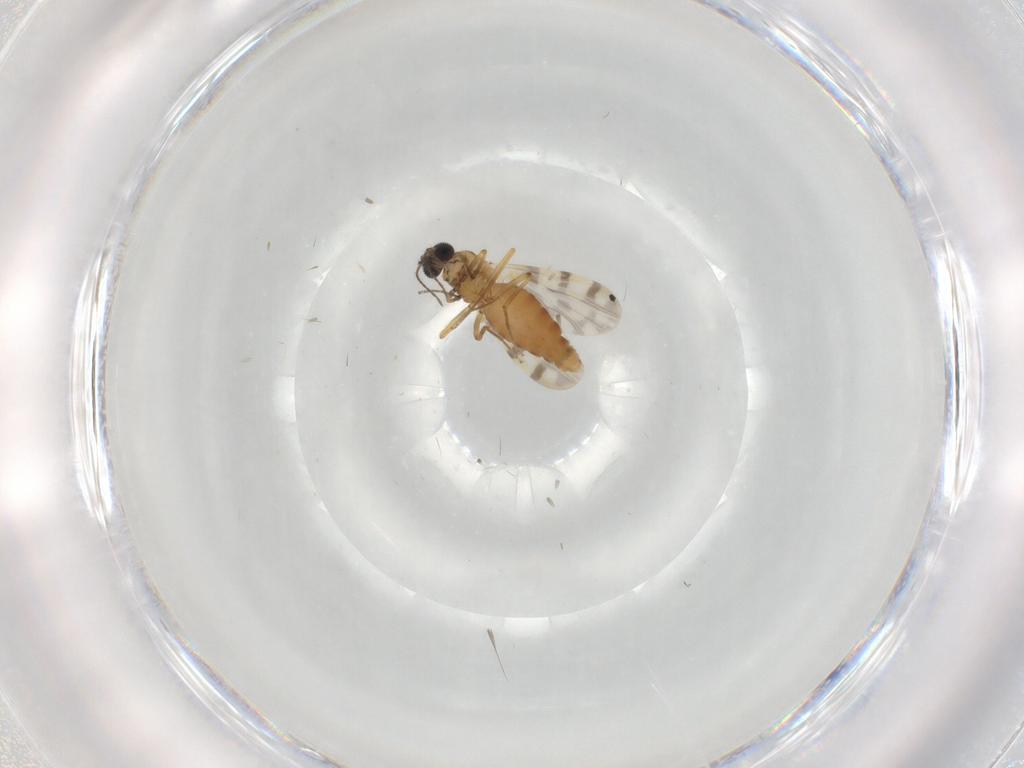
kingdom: Animalia
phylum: Arthropoda
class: Insecta
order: Diptera
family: Ceratopogonidae
